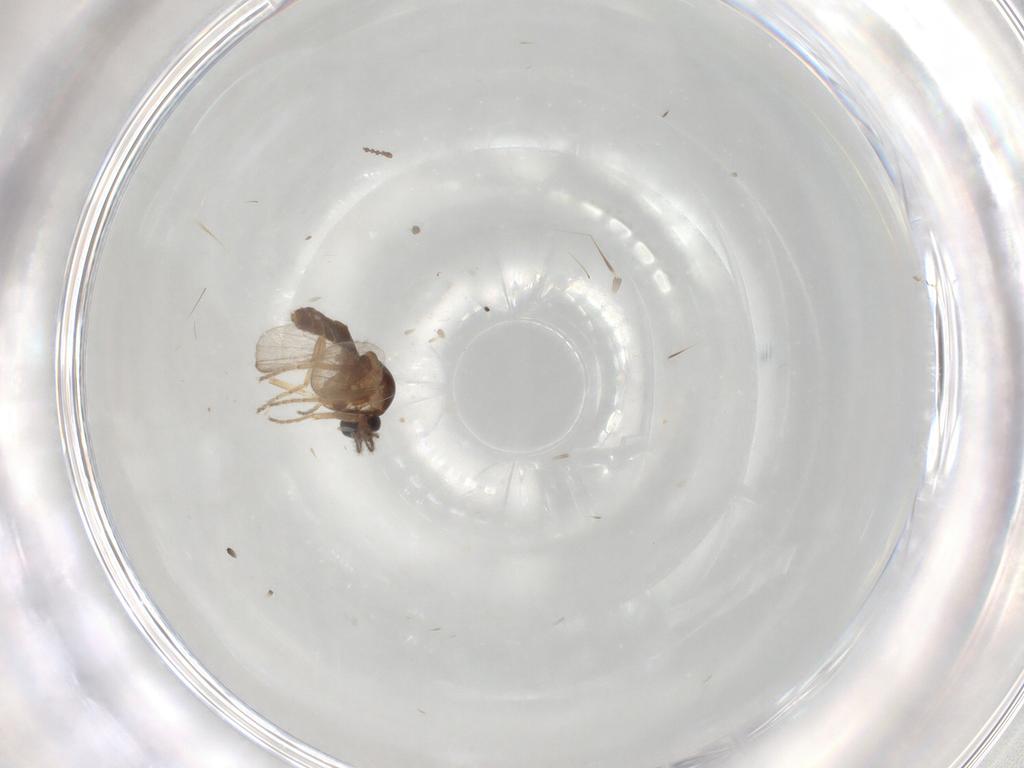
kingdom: Animalia
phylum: Arthropoda
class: Insecta
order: Diptera
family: Cecidomyiidae
